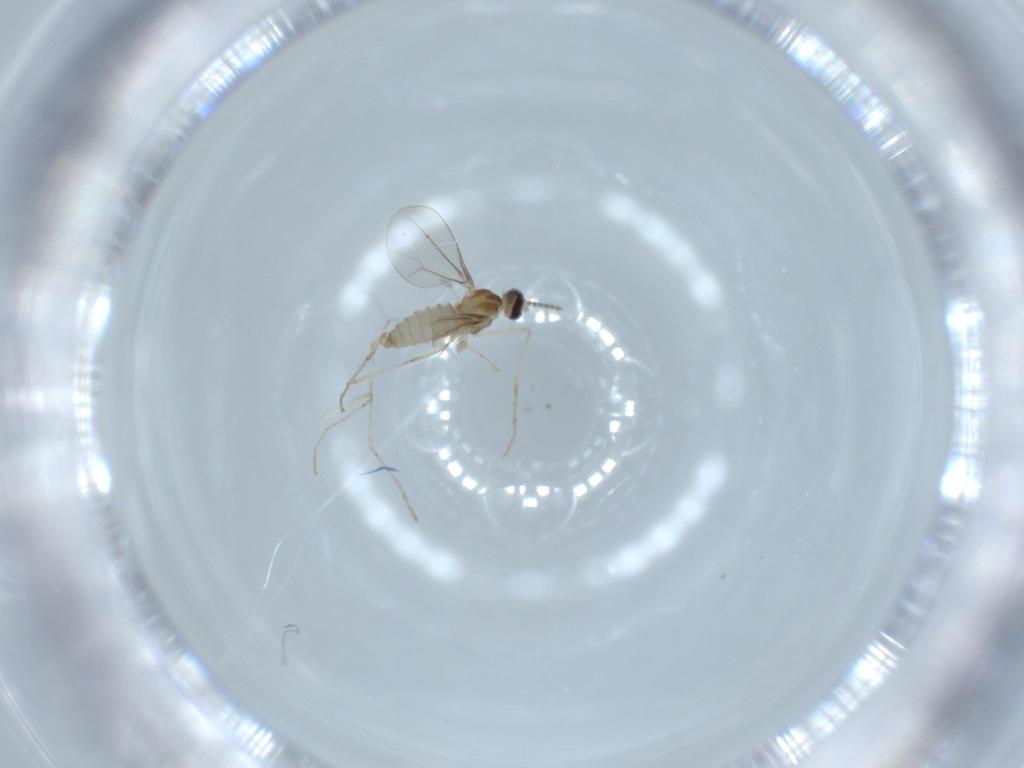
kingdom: Animalia
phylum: Arthropoda
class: Insecta
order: Diptera
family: Cecidomyiidae
